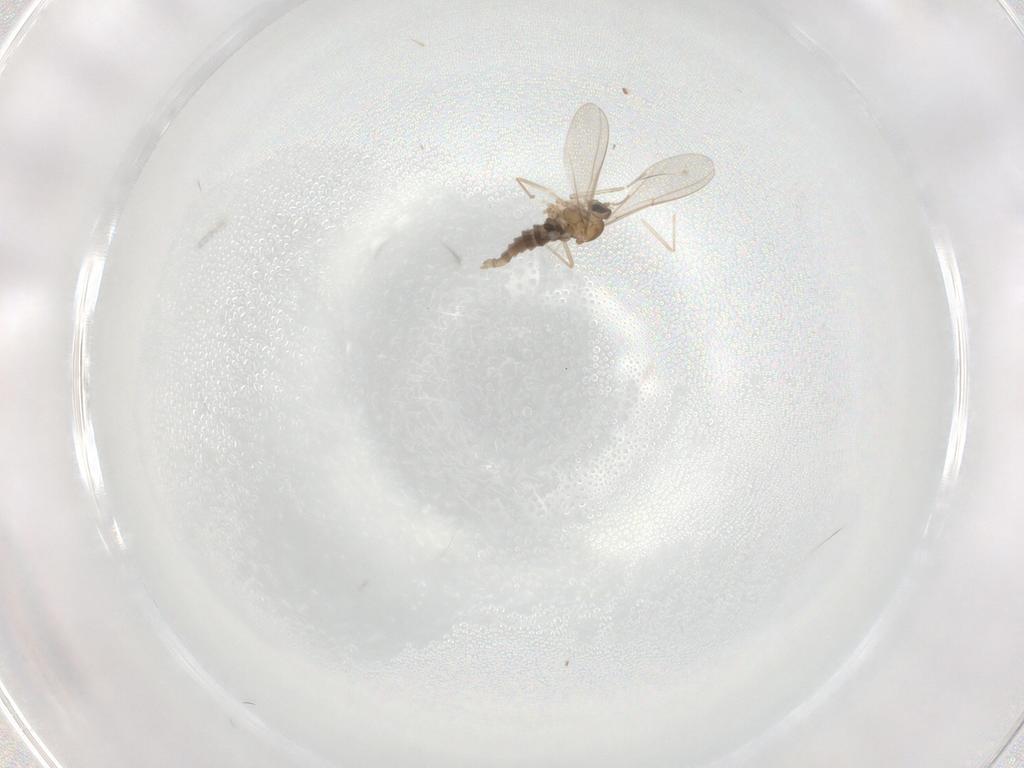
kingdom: Animalia
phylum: Arthropoda
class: Insecta
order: Diptera
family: Cecidomyiidae
